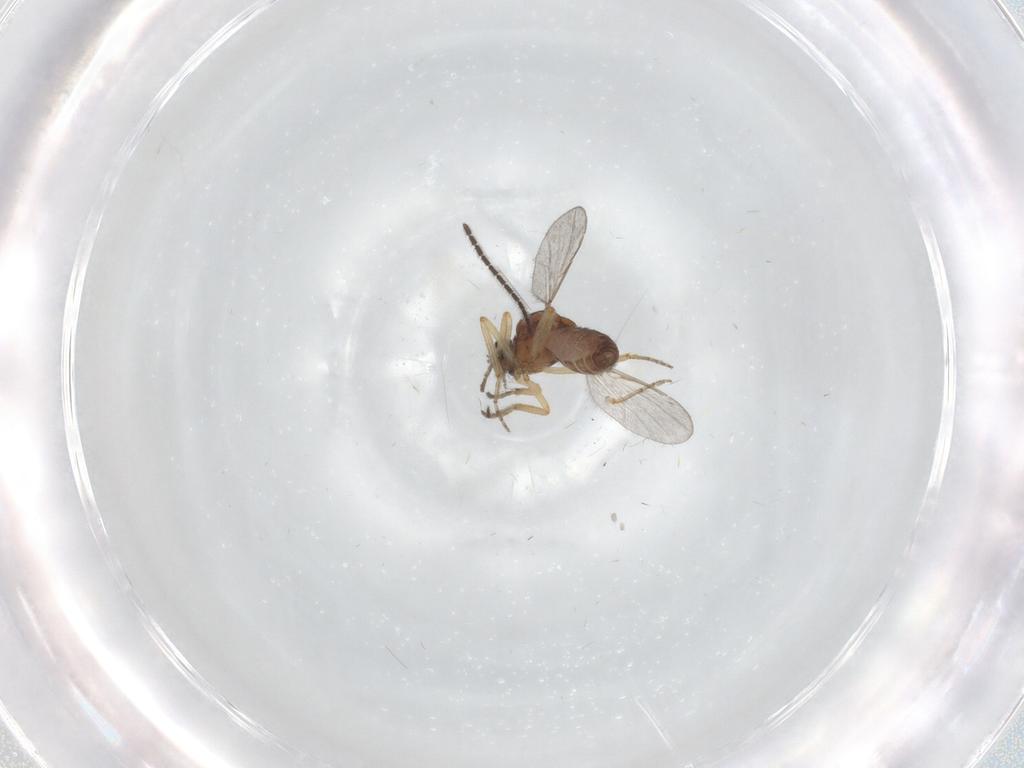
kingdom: Animalia
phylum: Arthropoda
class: Insecta
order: Diptera
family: Ceratopogonidae
